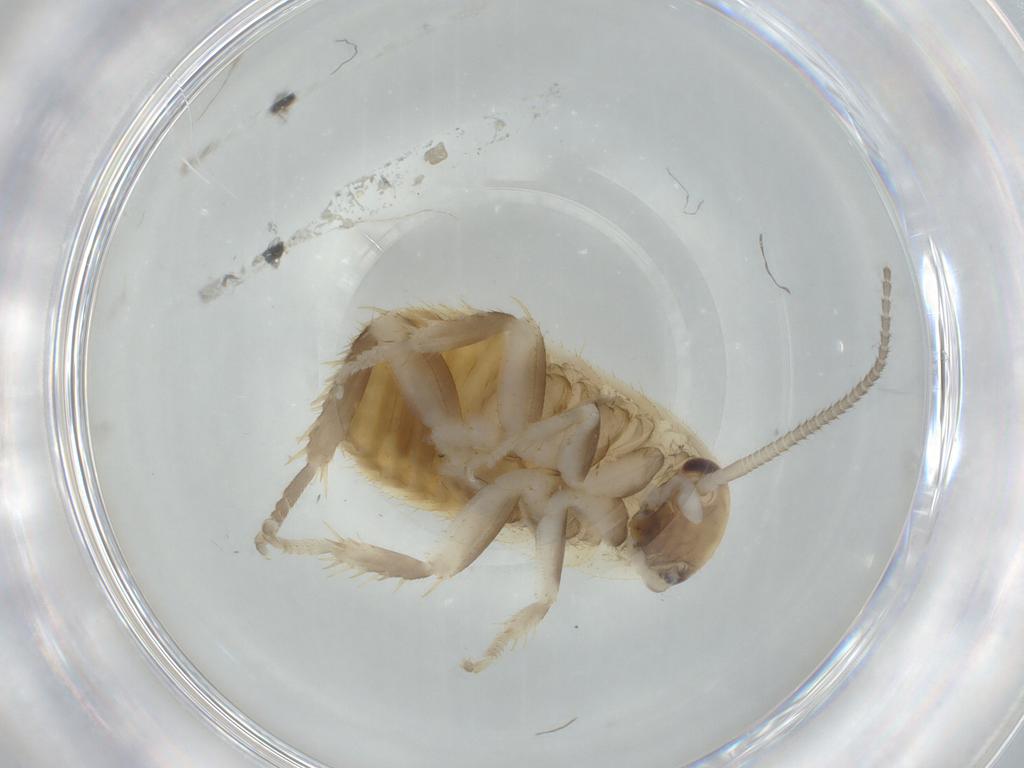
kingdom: Animalia
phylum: Arthropoda
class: Insecta
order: Blattodea
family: Ectobiidae
